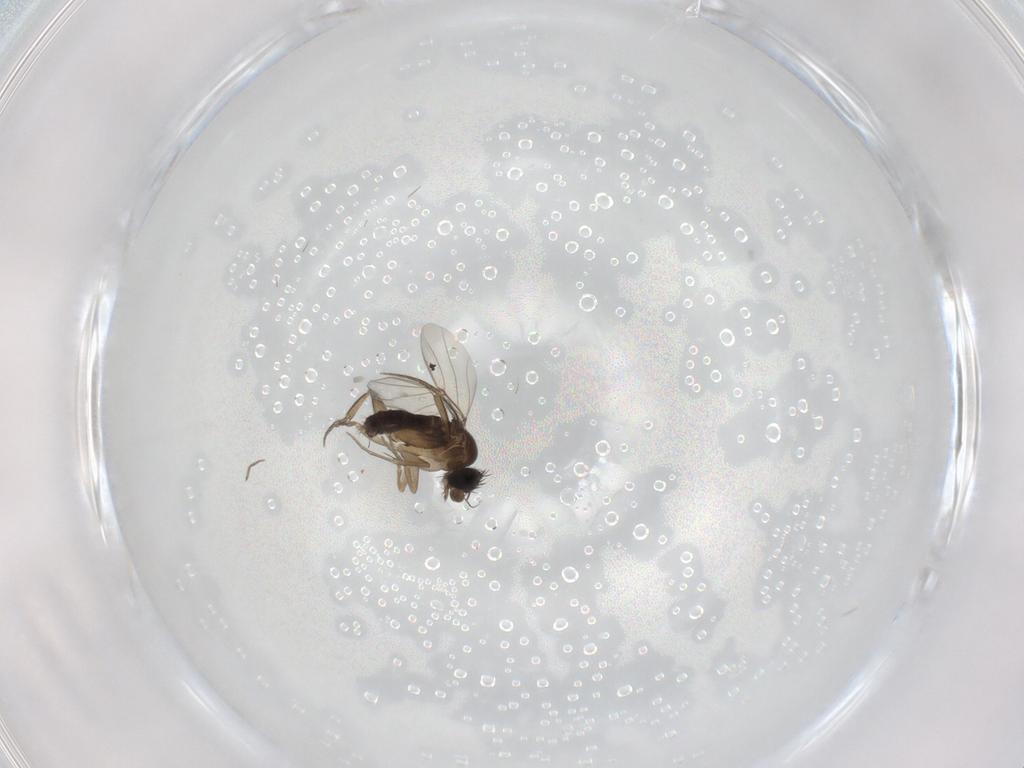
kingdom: Animalia
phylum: Arthropoda
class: Insecta
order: Diptera
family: Phoridae
